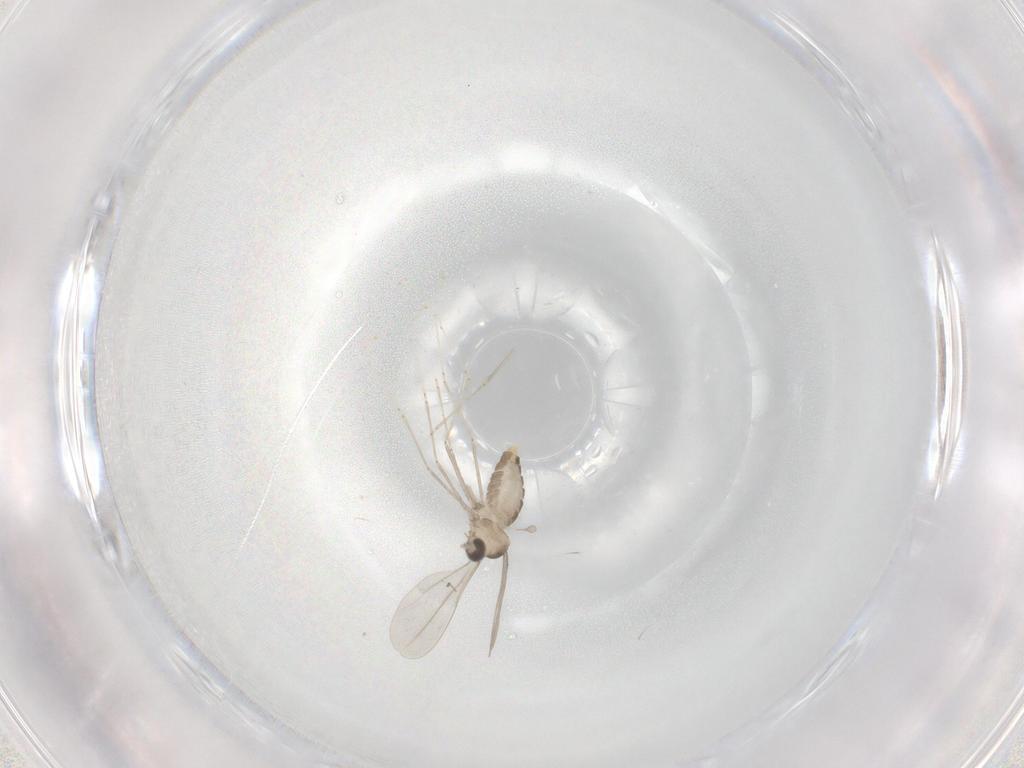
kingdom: Animalia
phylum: Arthropoda
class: Insecta
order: Diptera
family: Cecidomyiidae
